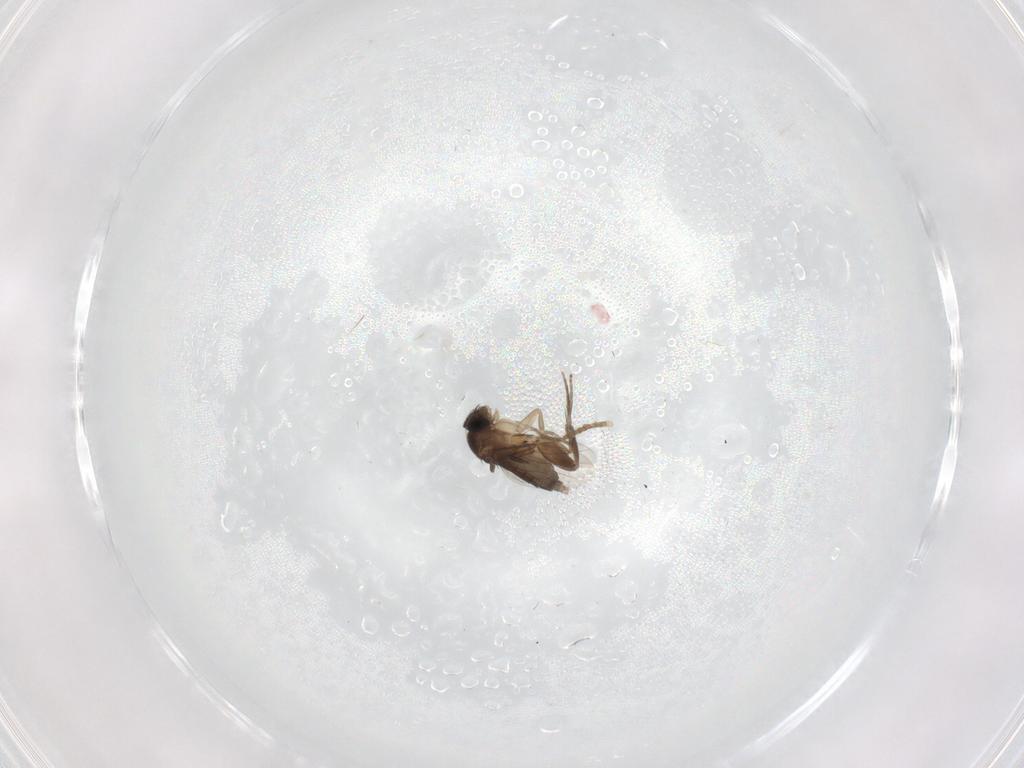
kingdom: Animalia
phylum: Arthropoda
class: Insecta
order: Diptera
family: Phoridae
